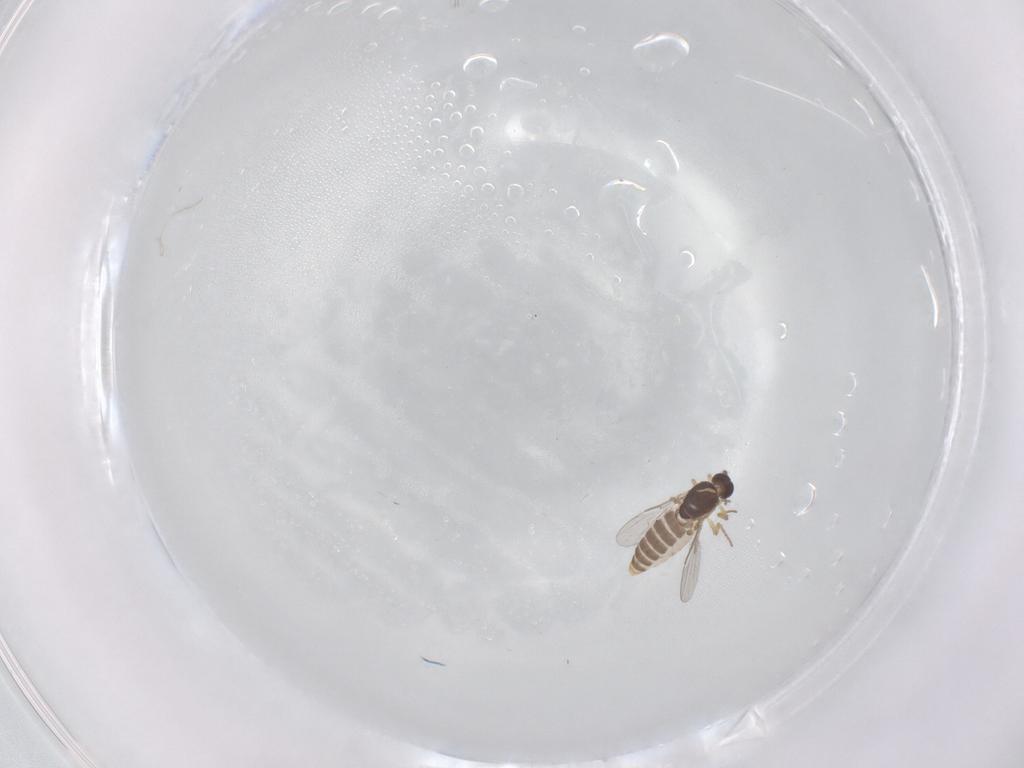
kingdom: Animalia
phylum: Arthropoda
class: Insecta
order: Diptera
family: Ceratopogonidae
